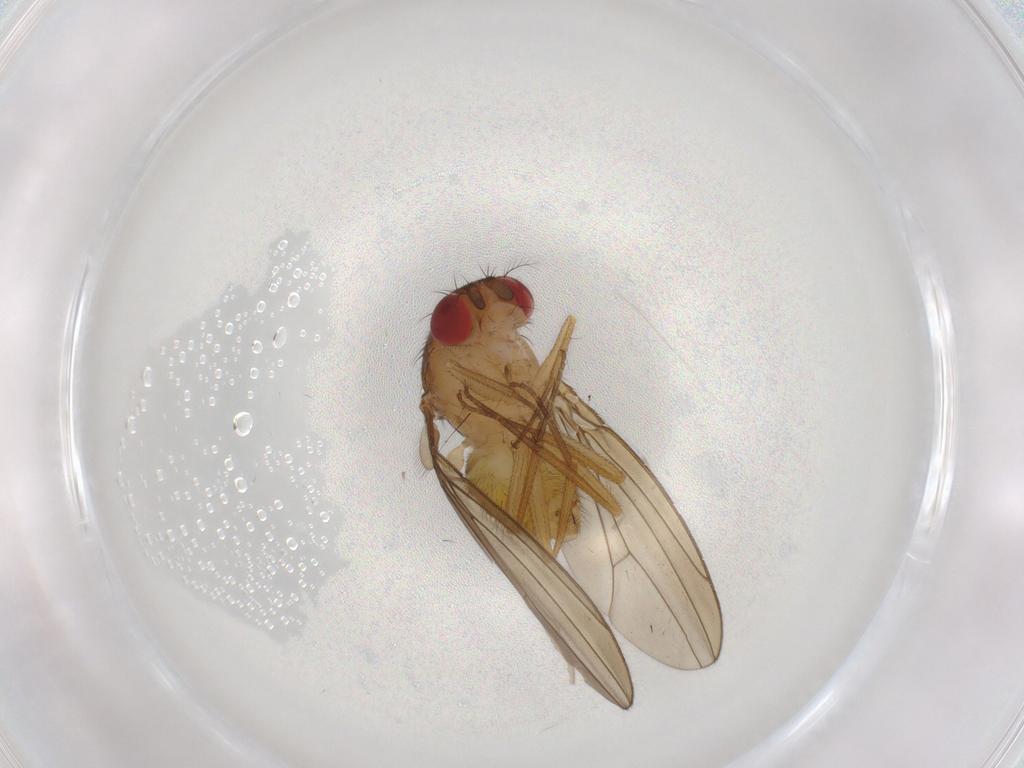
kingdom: Animalia
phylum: Arthropoda
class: Insecta
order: Diptera
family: Drosophilidae
